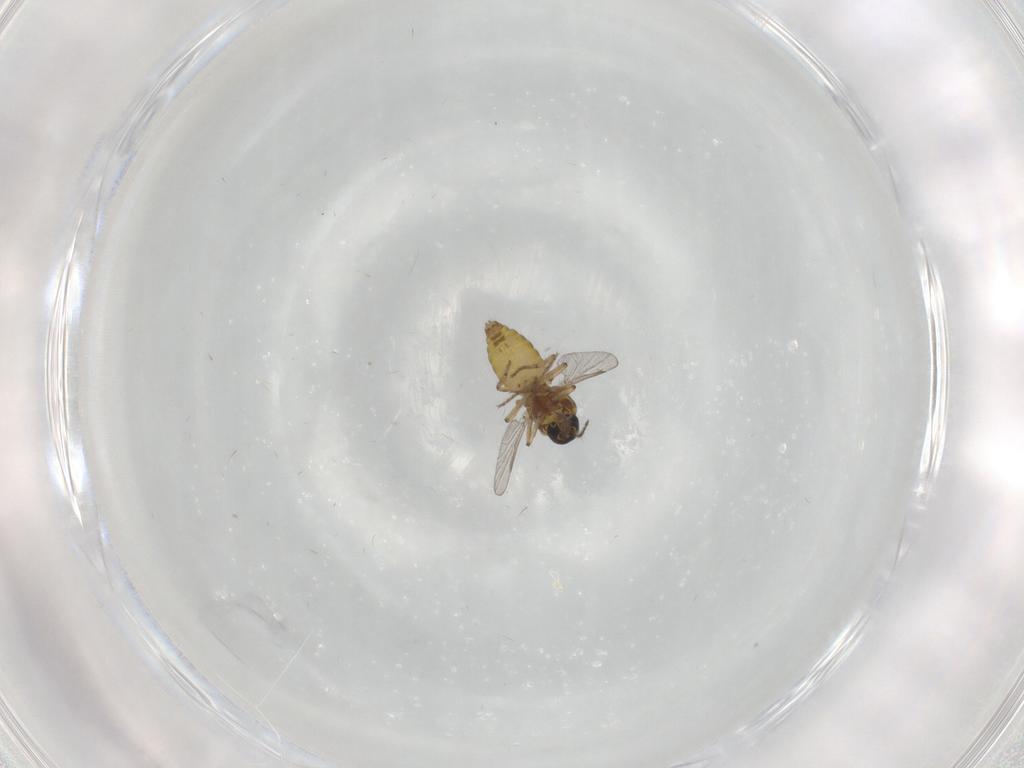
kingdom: Animalia
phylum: Arthropoda
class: Insecta
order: Diptera
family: Ceratopogonidae
